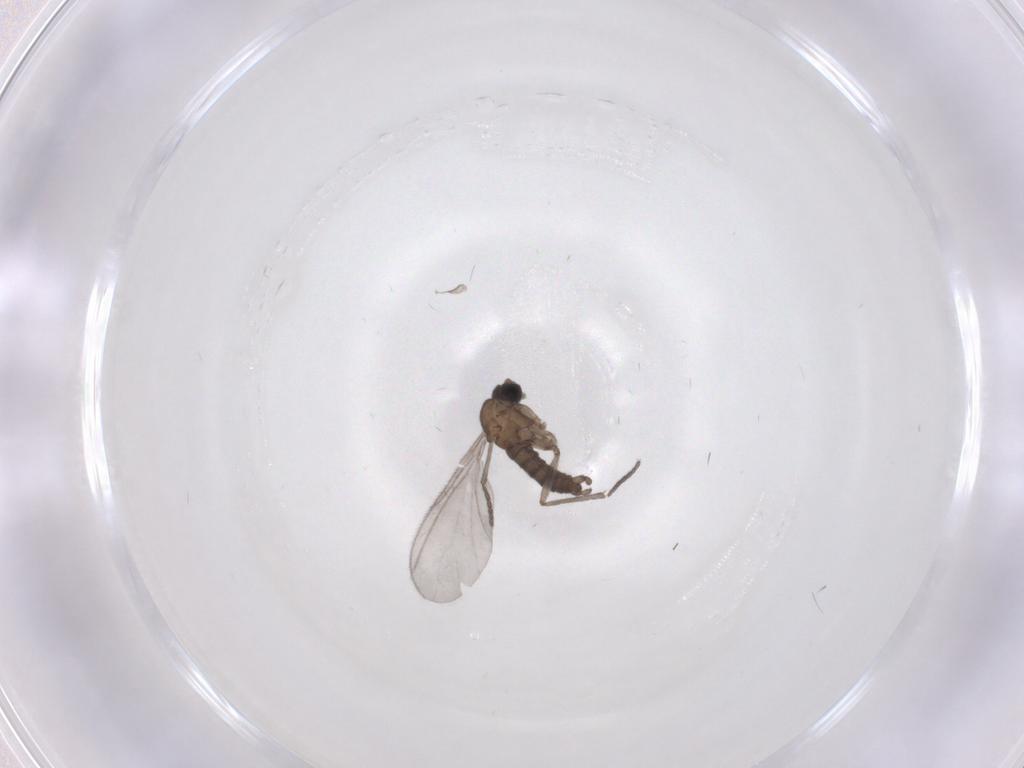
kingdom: Animalia
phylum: Arthropoda
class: Insecta
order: Diptera
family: Sciaridae
